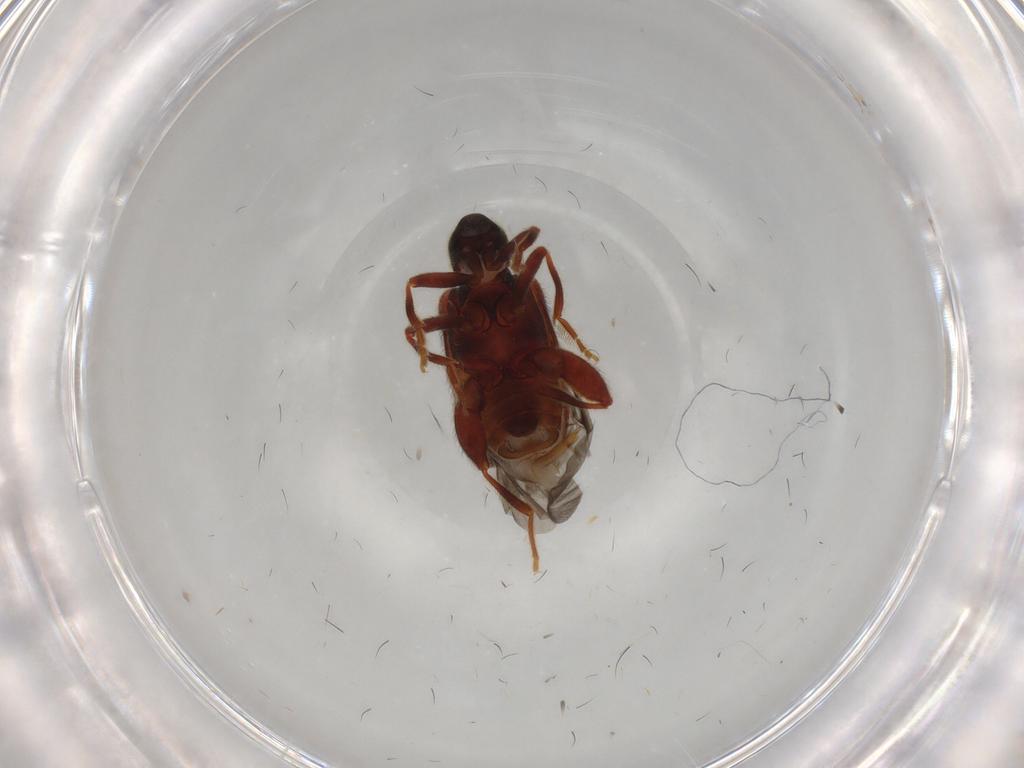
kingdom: Animalia
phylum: Arthropoda
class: Insecta
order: Coleoptera
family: Aderidae
